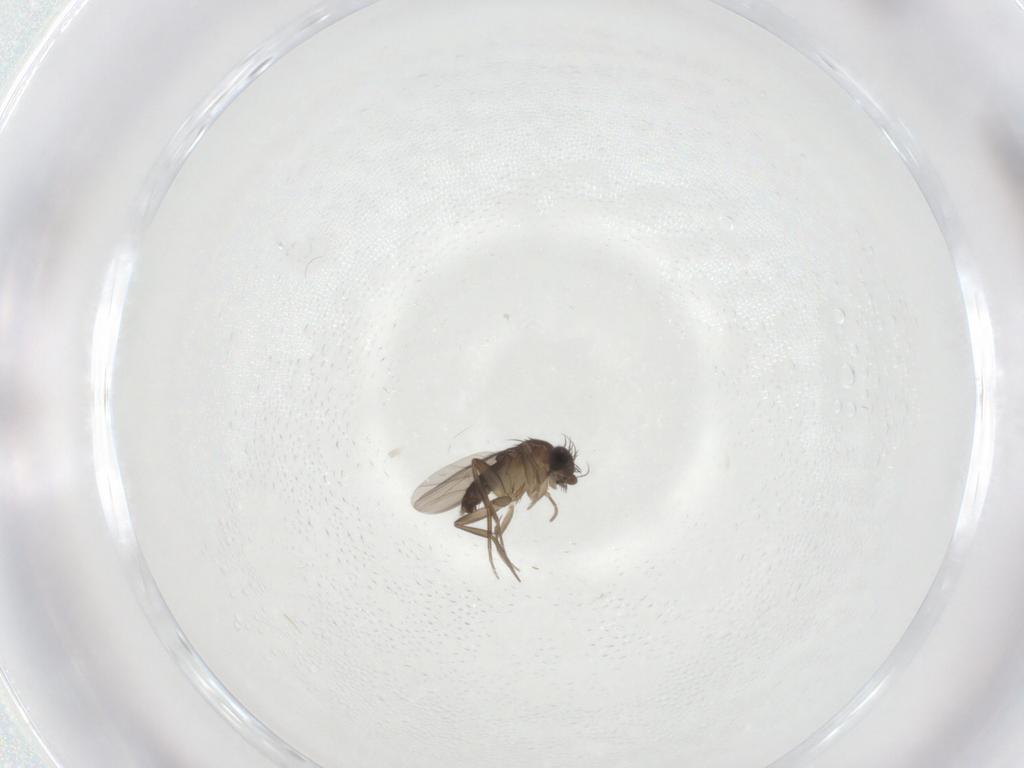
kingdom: Animalia
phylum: Arthropoda
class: Insecta
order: Diptera
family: Phoridae
